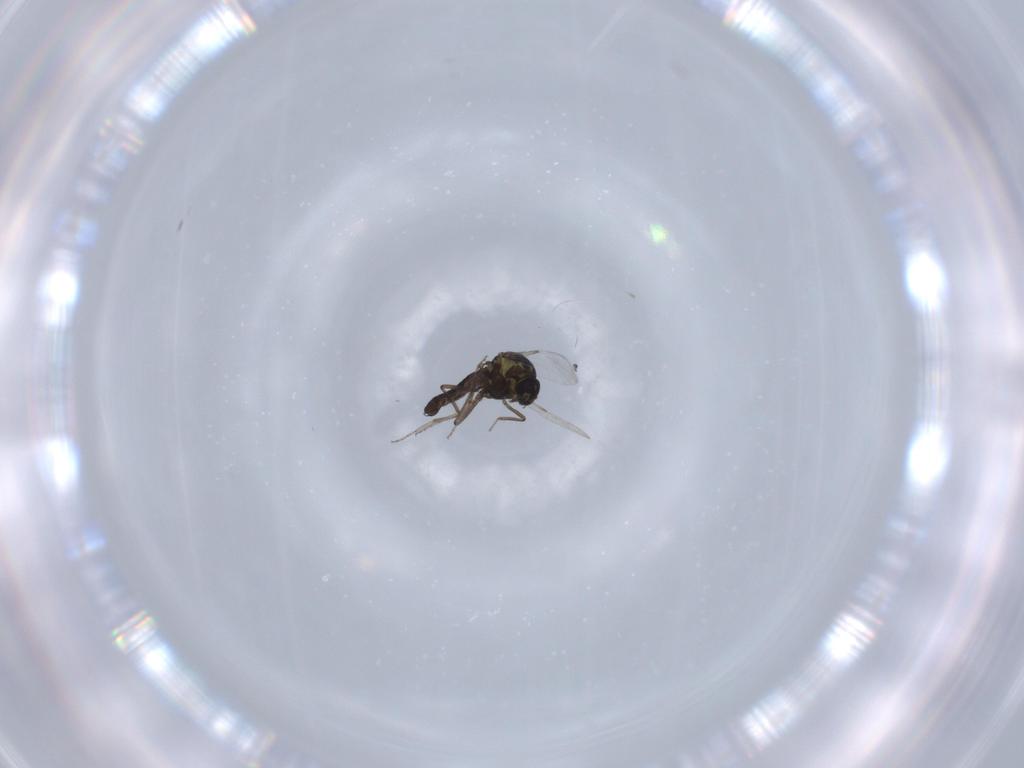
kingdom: Animalia
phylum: Arthropoda
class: Insecta
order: Diptera
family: Ceratopogonidae
